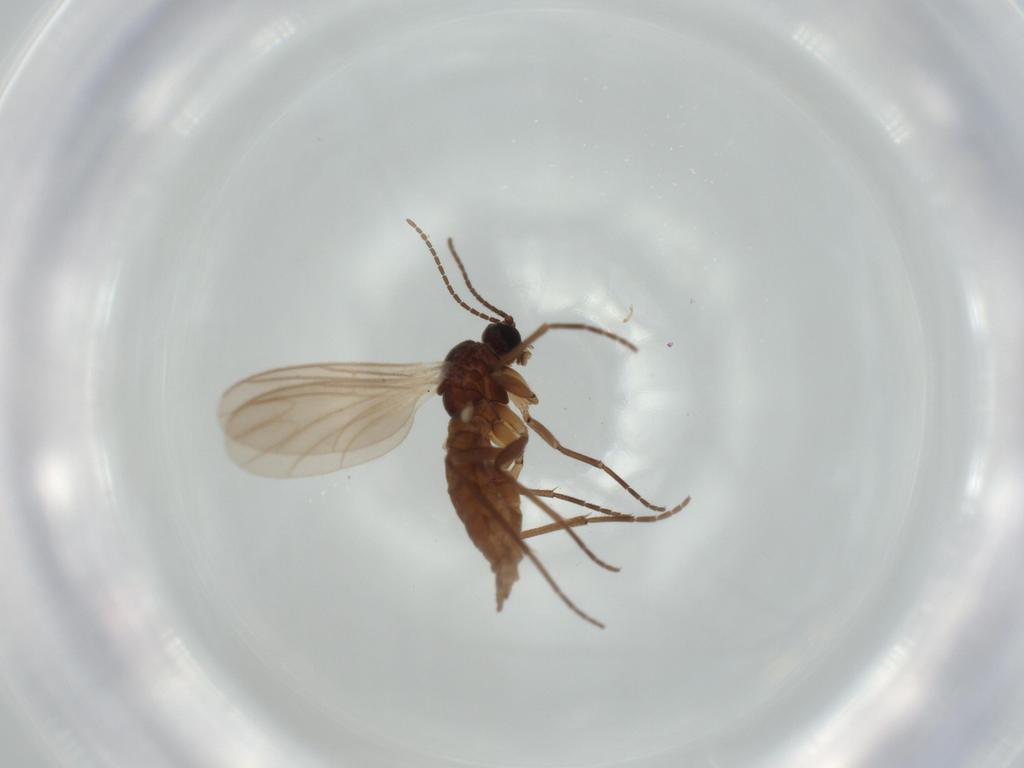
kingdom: Animalia
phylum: Arthropoda
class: Insecta
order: Diptera
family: Sciaridae
